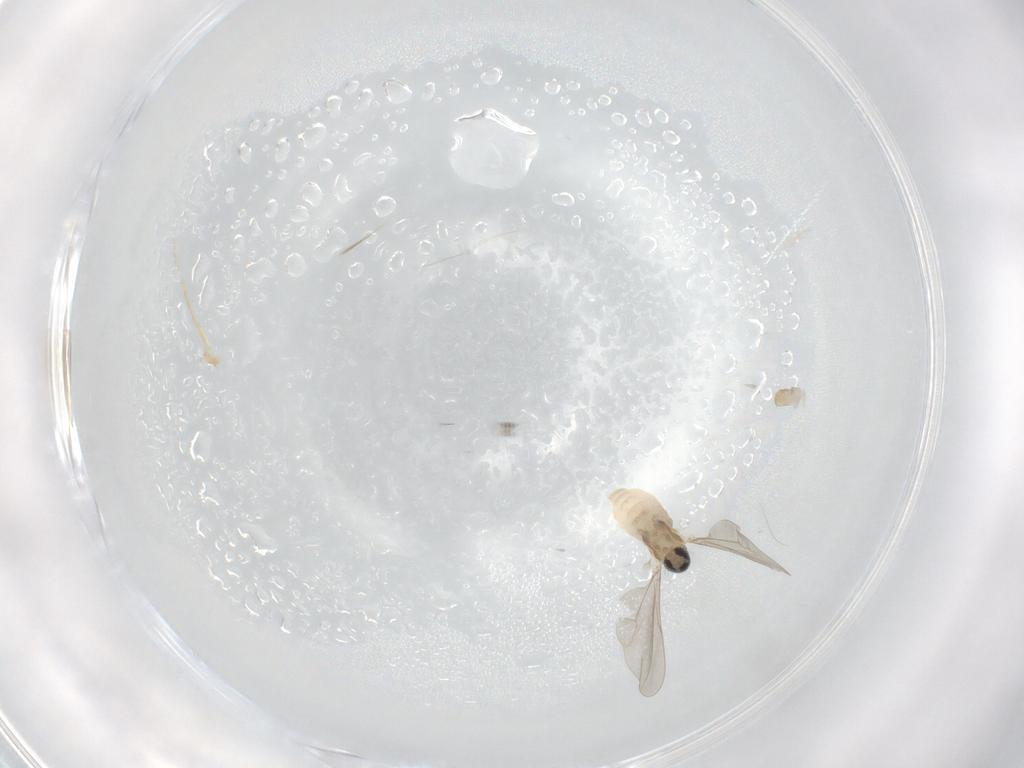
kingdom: Animalia
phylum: Arthropoda
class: Insecta
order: Diptera
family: Cecidomyiidae
